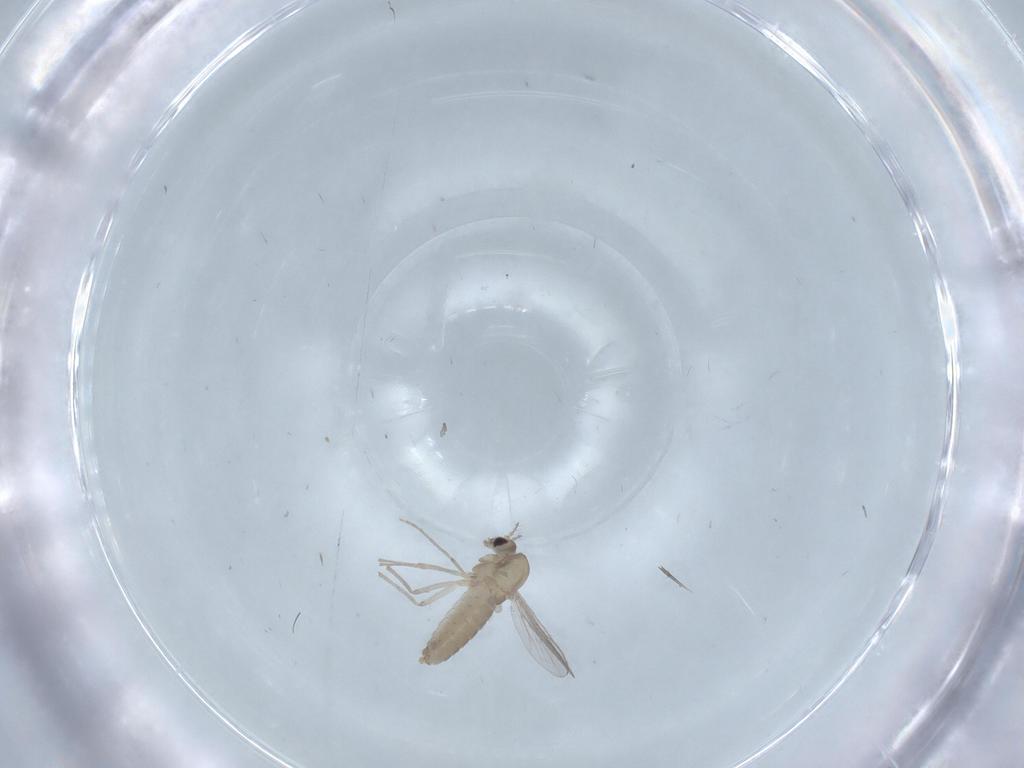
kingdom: Animalia
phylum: Arthropoda
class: Insecta
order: Diptera
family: Chironomidae
